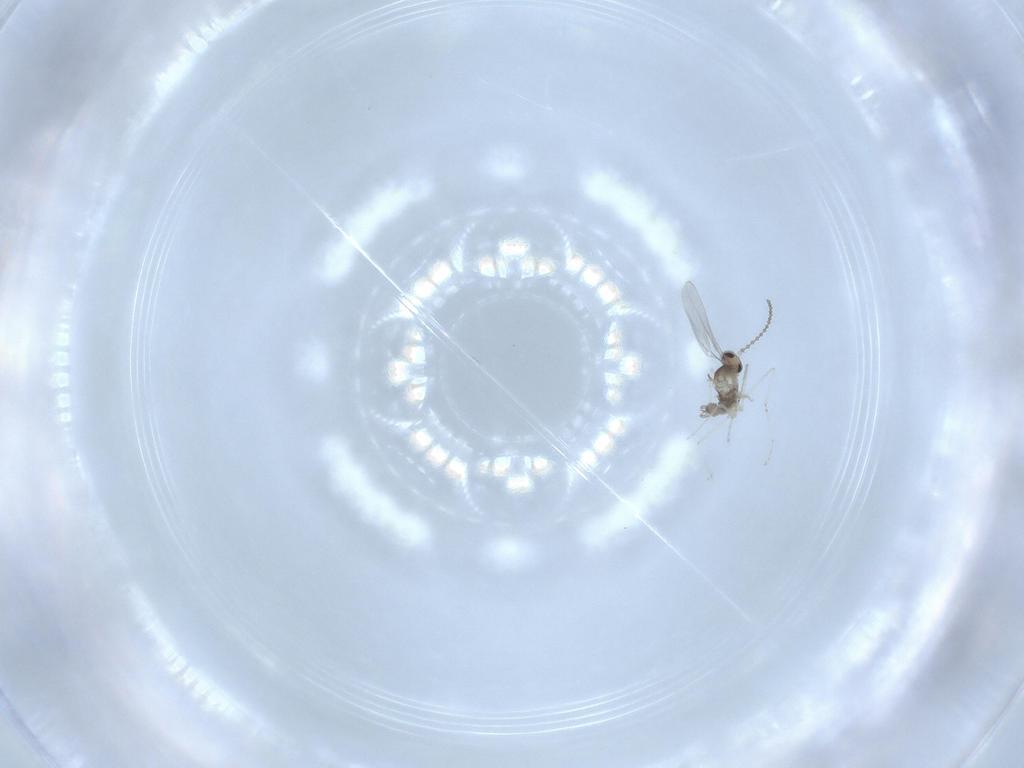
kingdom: Animalia
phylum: Arthropoda
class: Insecta
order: Diptera
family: Cecidomyiidae
